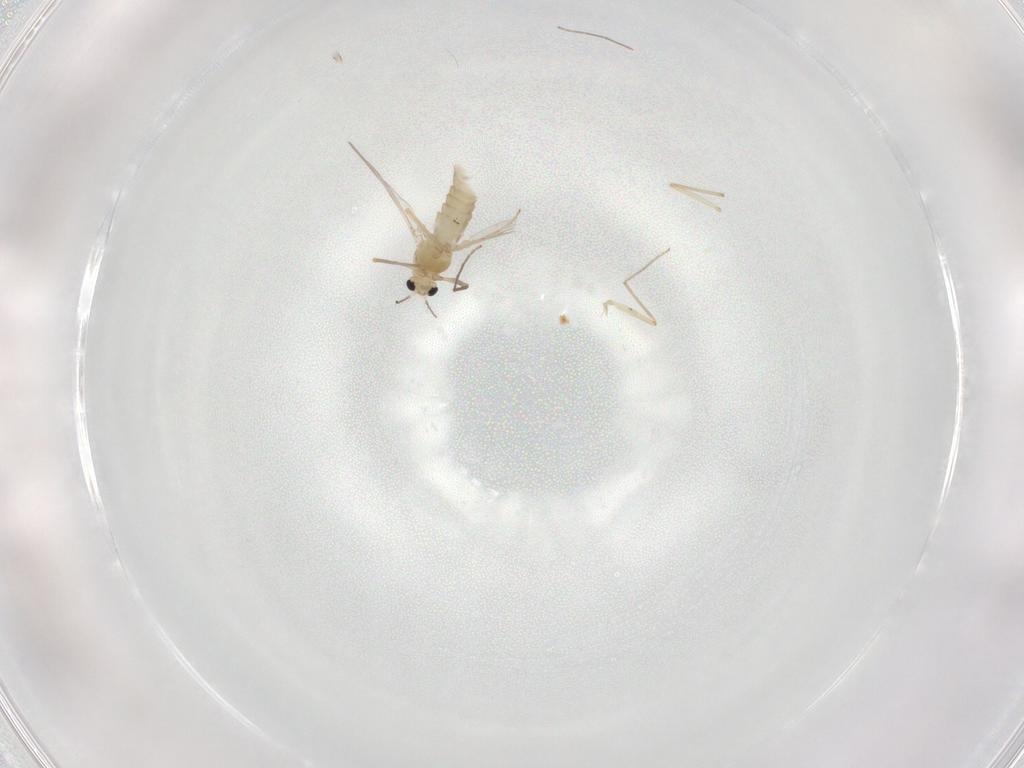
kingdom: Animalia
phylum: Arthropoda
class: Insecta
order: Diptera
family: Chironomidae
